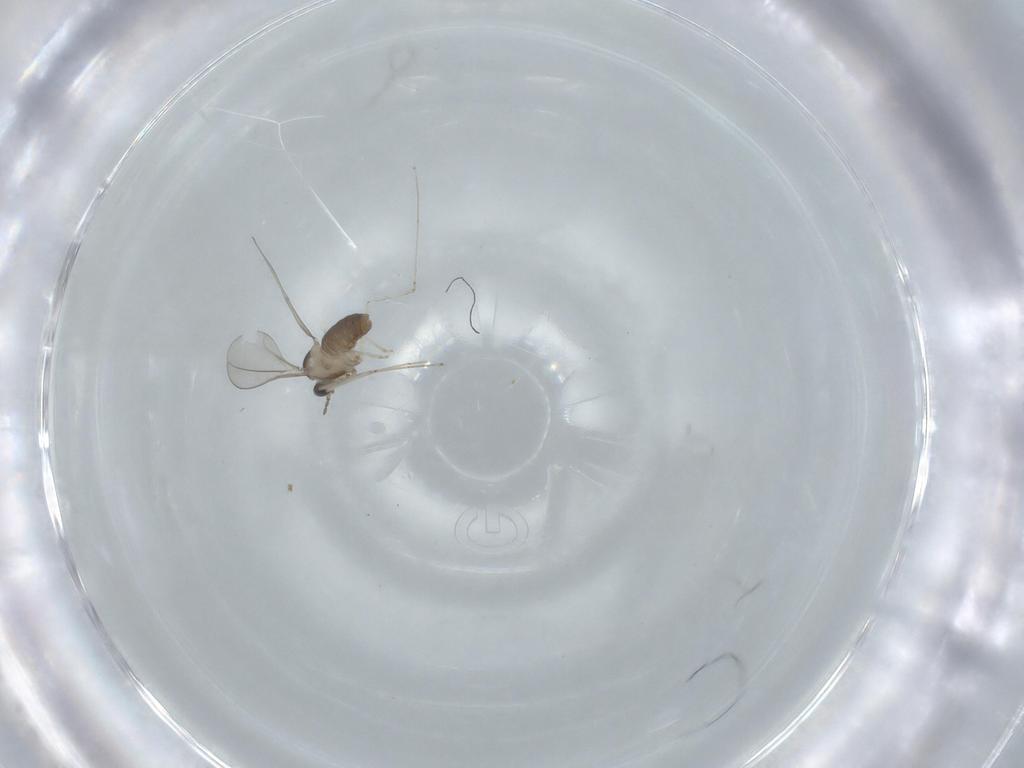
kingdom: Animalia
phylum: Arthropoda
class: Insecta
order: Diptera
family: Cecidomyiidae
